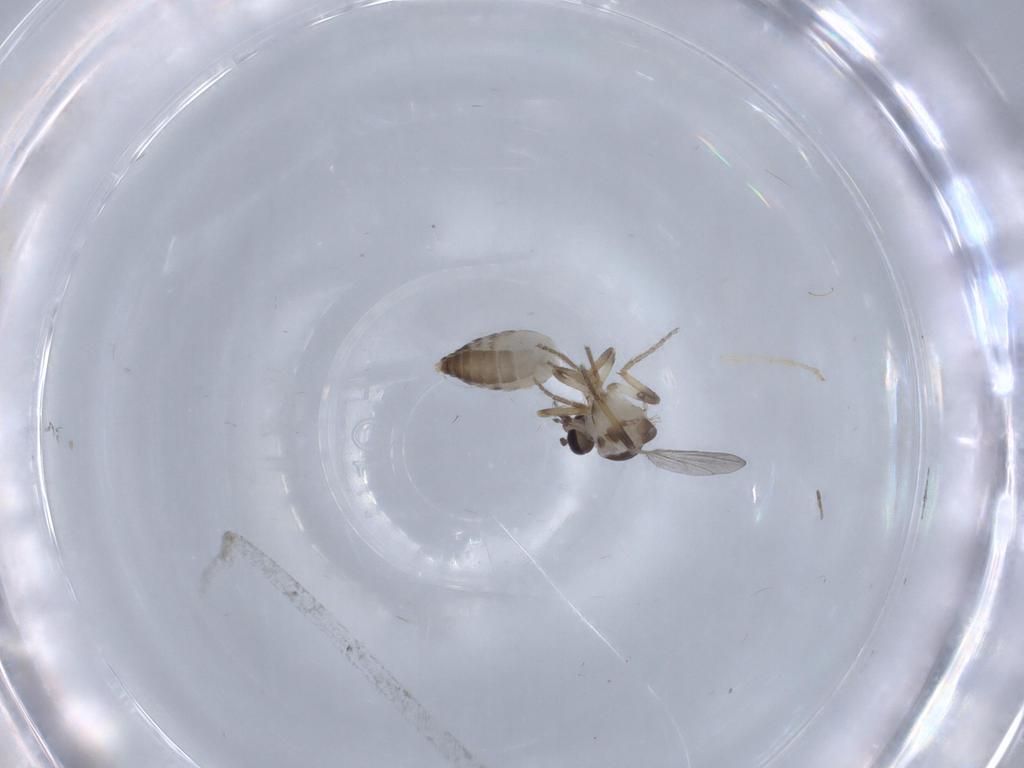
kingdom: Animalia
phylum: Arthropoda
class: Insecta
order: Diptera
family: Ceratopogonidae
